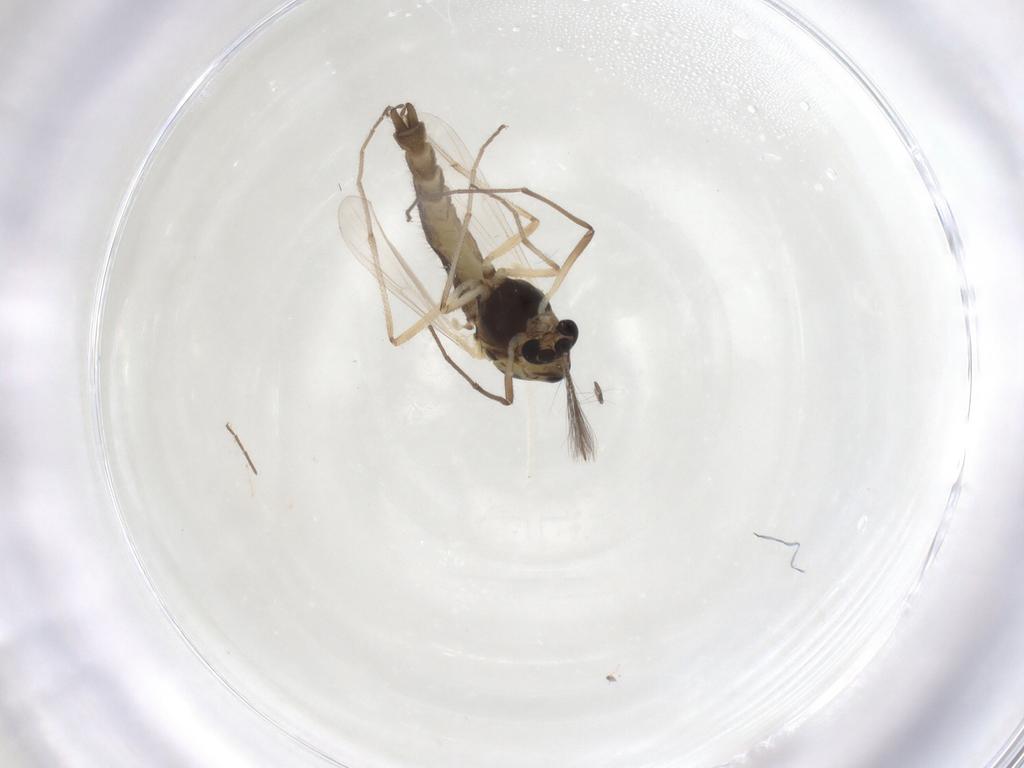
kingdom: Animalia
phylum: Arthropoda
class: Insecta
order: Diptera
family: Chironomidae
